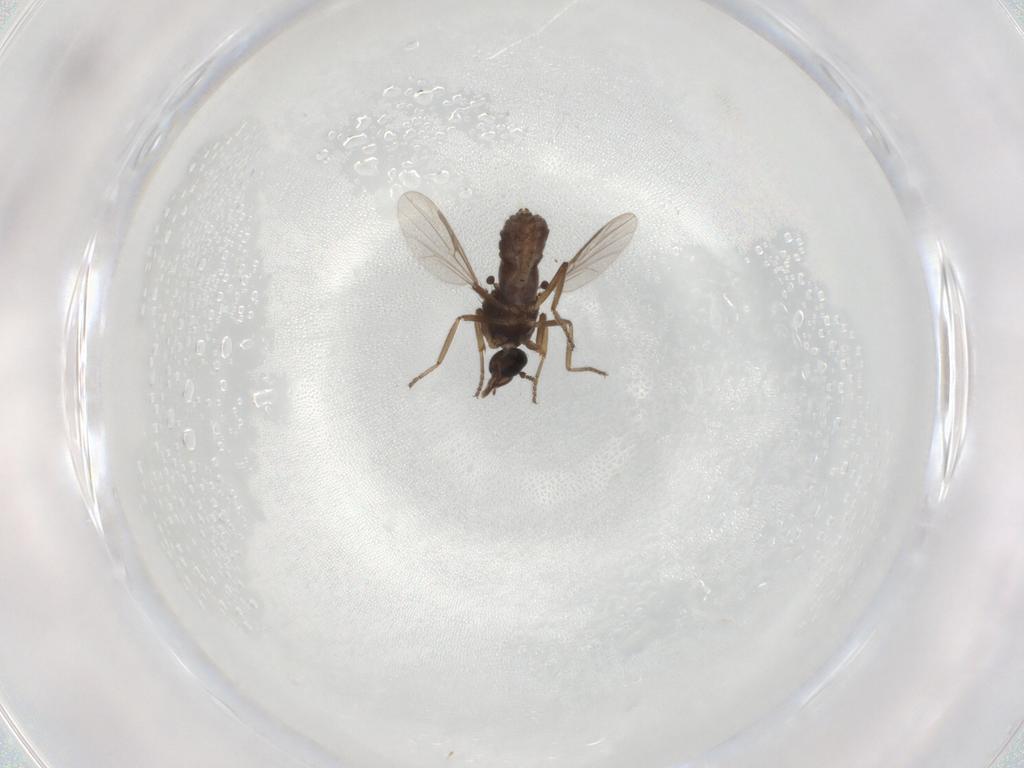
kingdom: Animalia
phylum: Arthropoda
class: Insecta
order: Diptera
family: Ceratopogonidae
